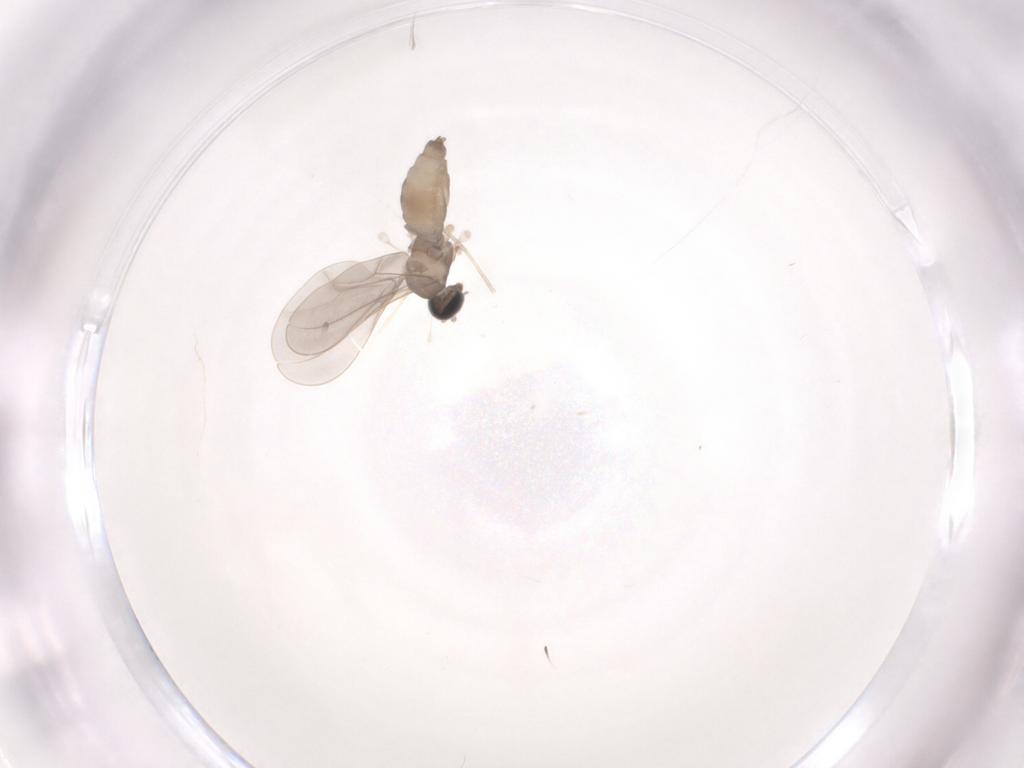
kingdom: Animalia
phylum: Arthropoda
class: Insecta
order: Diptera
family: Cecidomyiidae
